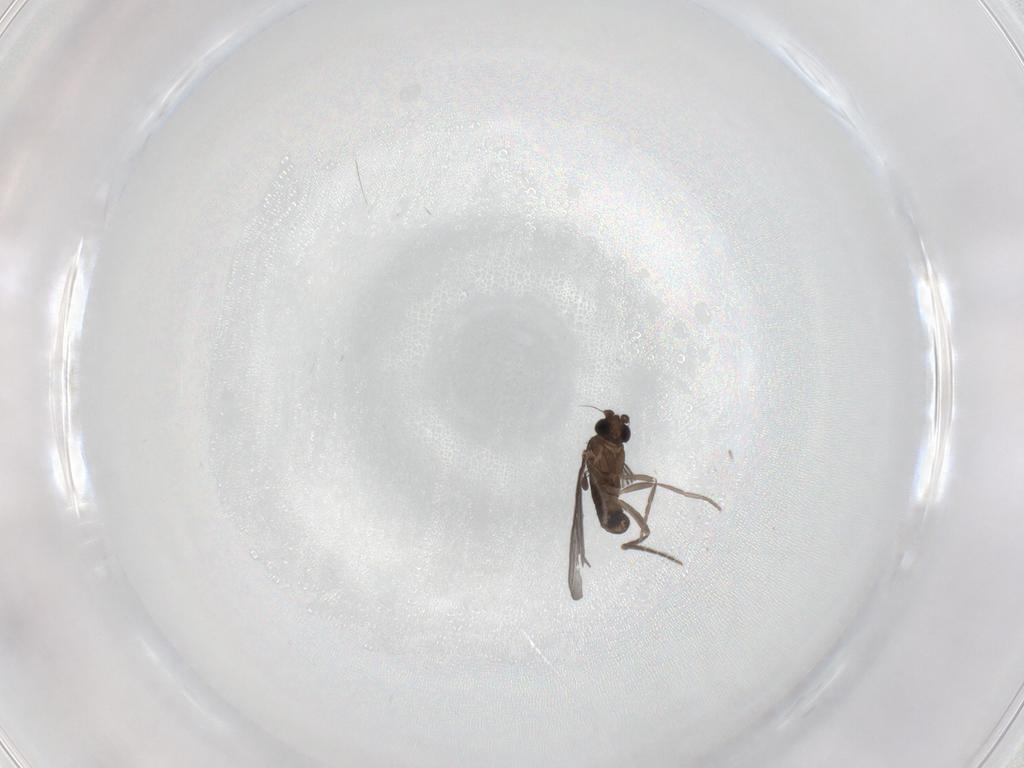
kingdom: Animalia
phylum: Arthropoda
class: Insecta
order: Diptera
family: Phoridae
